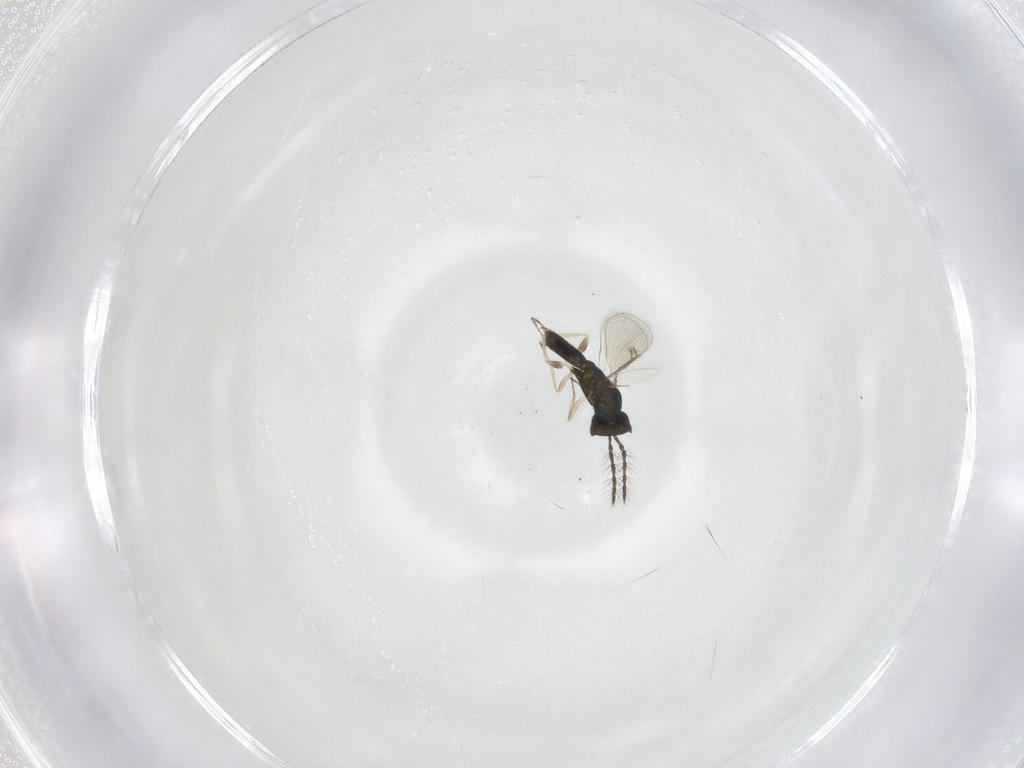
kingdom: Animalia
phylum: Arthropoda
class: Insecta
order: Hymenoptera
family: Eulophidae
